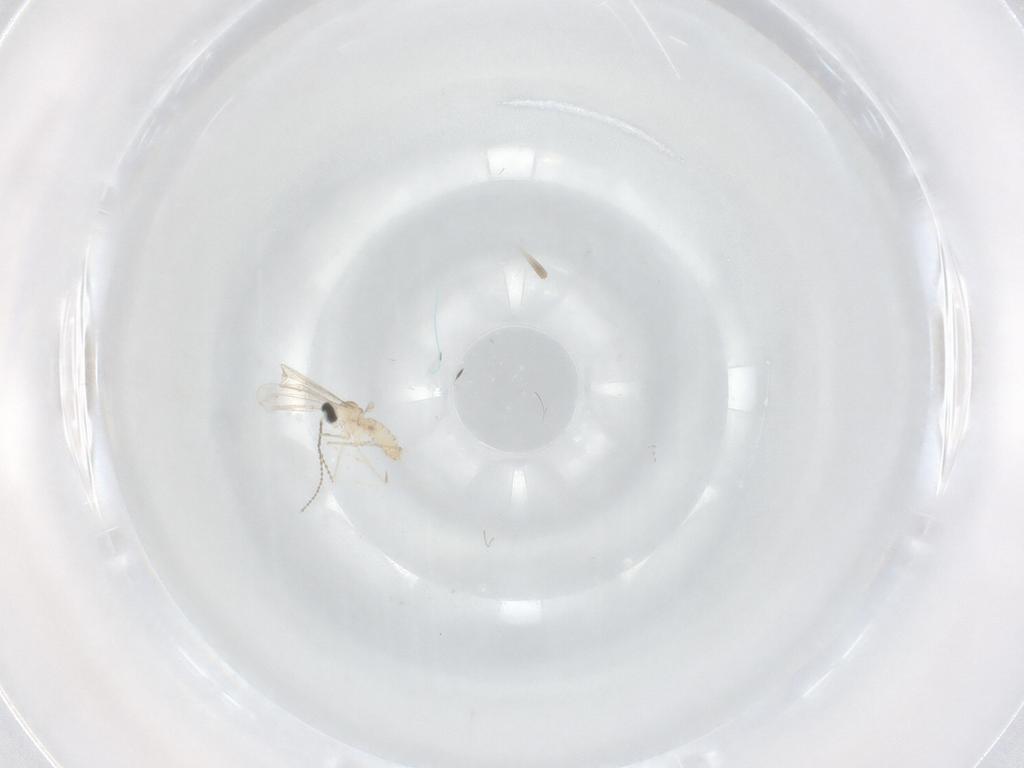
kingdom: Animalia
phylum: Arthropoda
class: Insecta
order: Diptera
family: Cecidomyiidae
